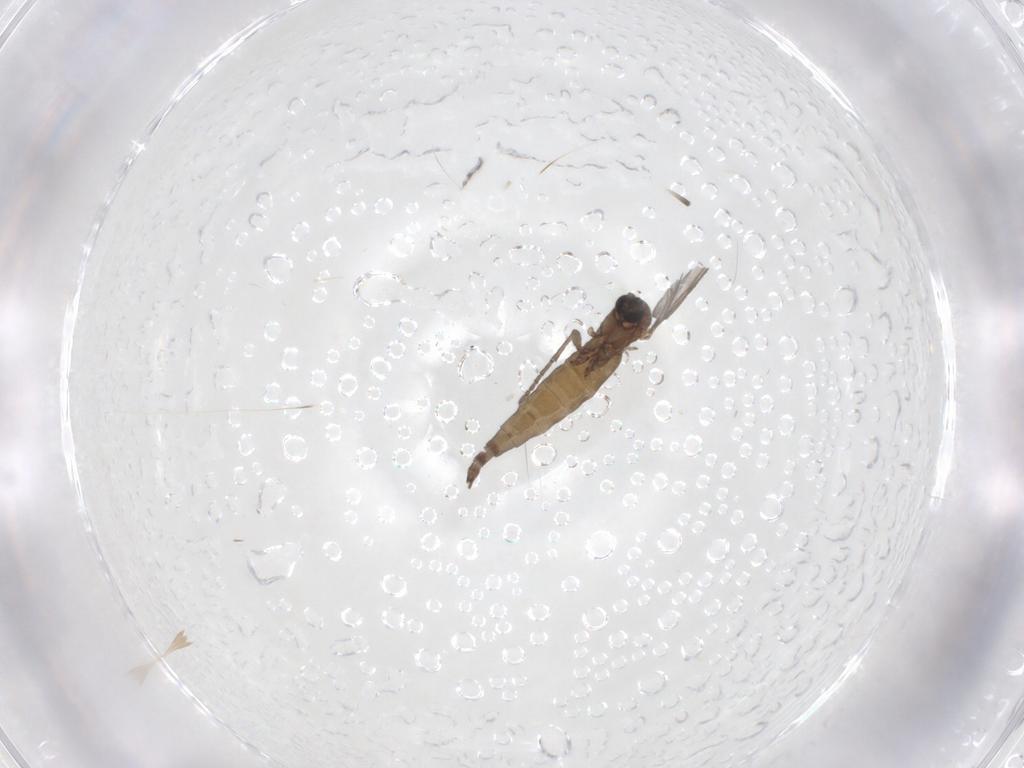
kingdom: Animalia
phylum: Arthropoda
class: Insecta
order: Diptera
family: Sciaridae
